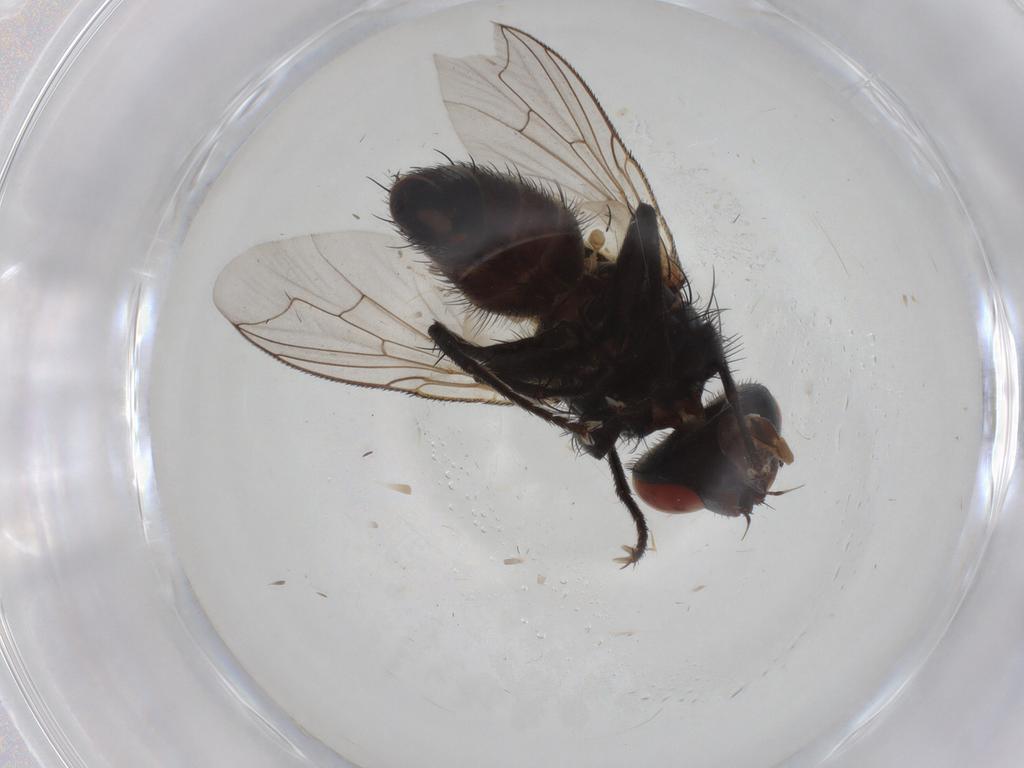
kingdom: Animalia
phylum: Arthropoda
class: Insecta
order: Diptera
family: Sarcophagidae
